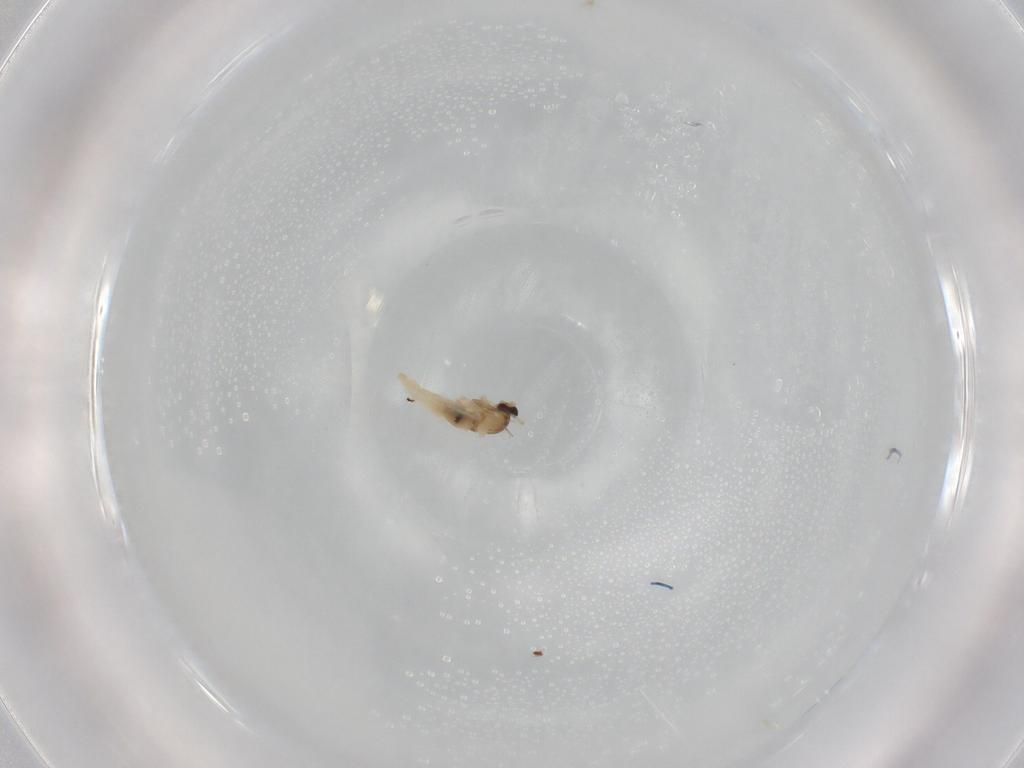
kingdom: Animalia
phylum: Arthropoda
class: Insecta
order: Diptera
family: Cecidomyiidae
